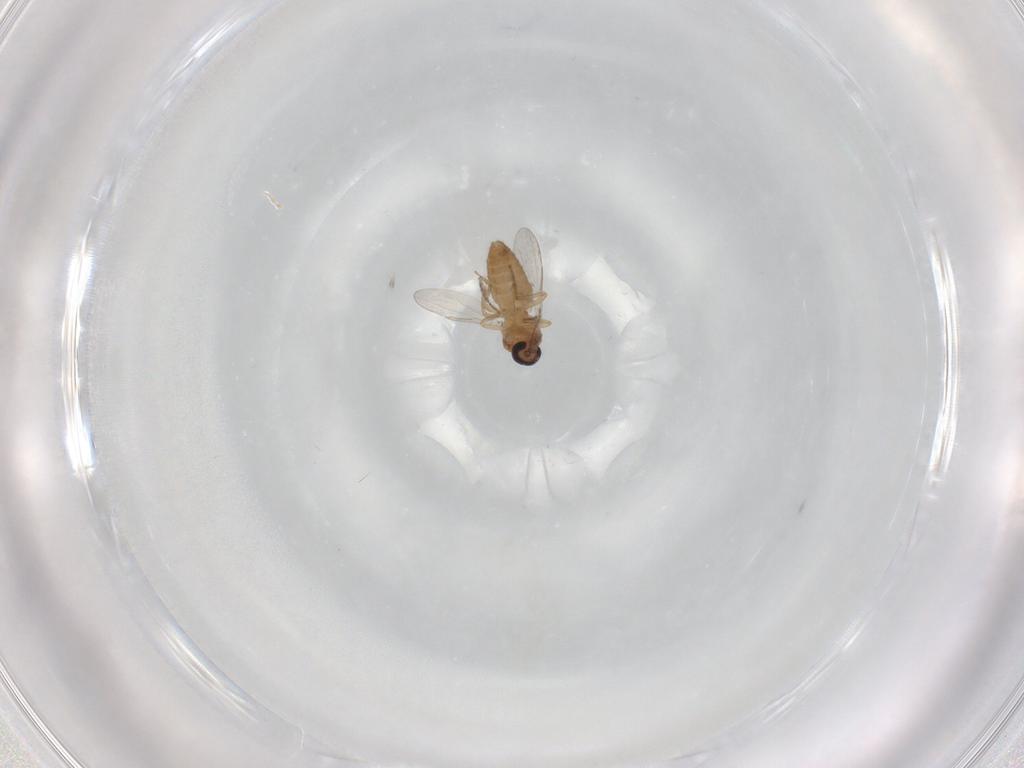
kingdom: Animalia
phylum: Arthropoda
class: Insecta
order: Diptera
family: Ceratopogonidae
